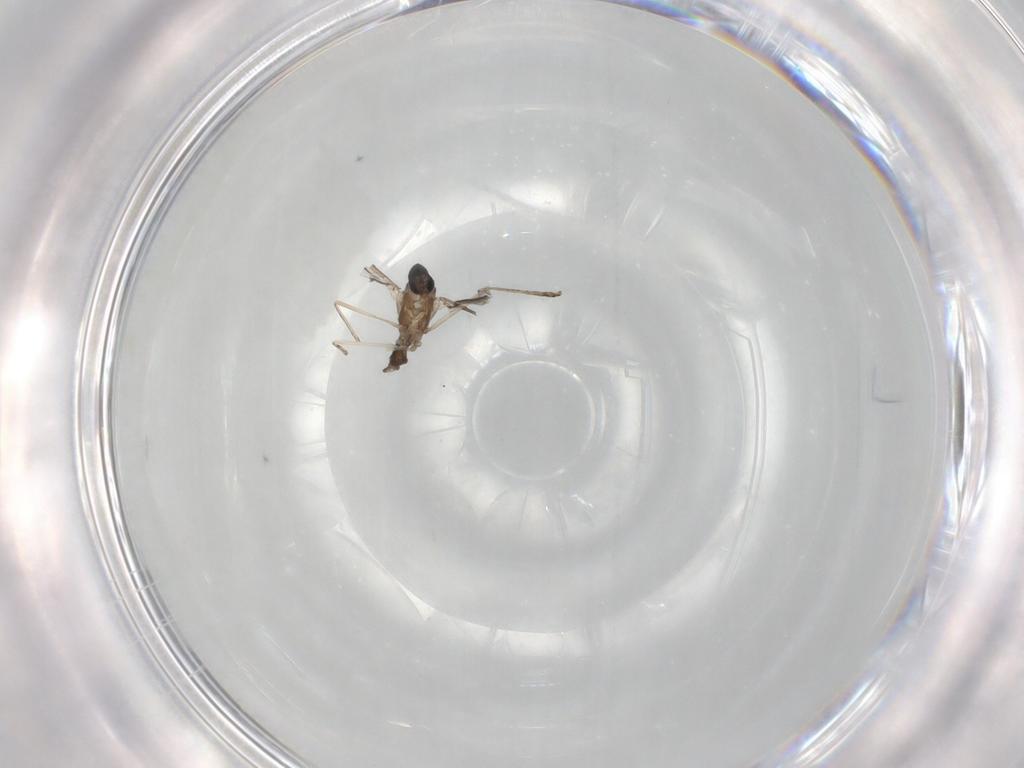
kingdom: Animalia
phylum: Arthropoda
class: Insecta
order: Diptera
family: Cecidomyiidae
